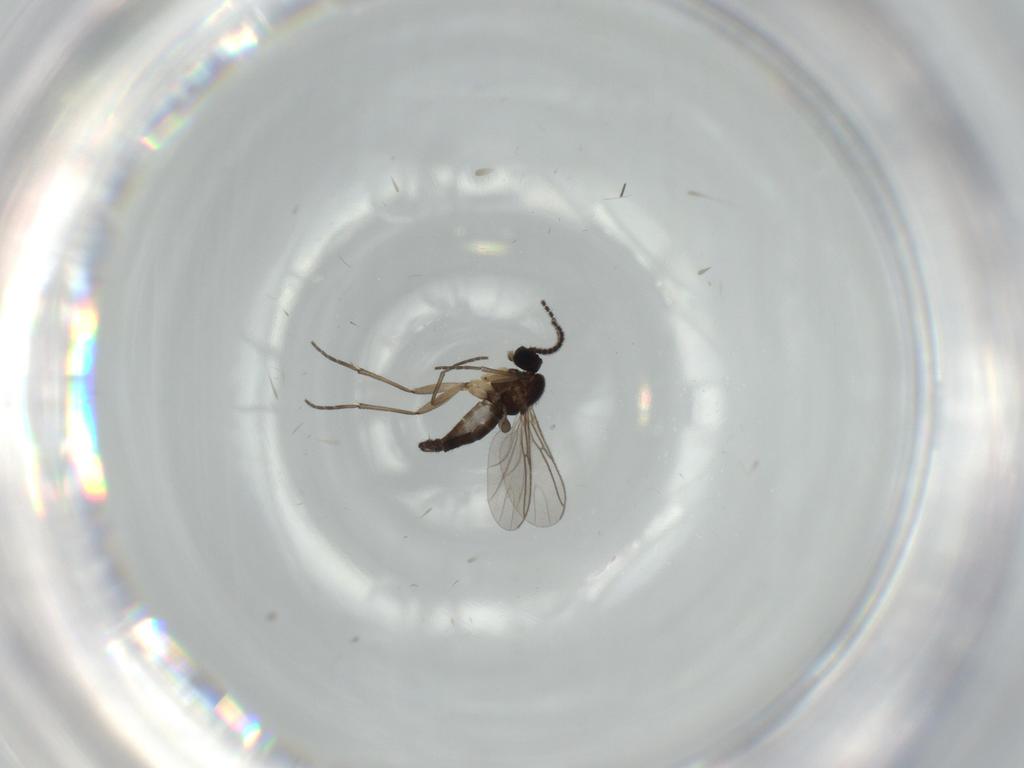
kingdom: Animalia
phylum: Arthropoda
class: Insecta
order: Diptera
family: Sciaridae
